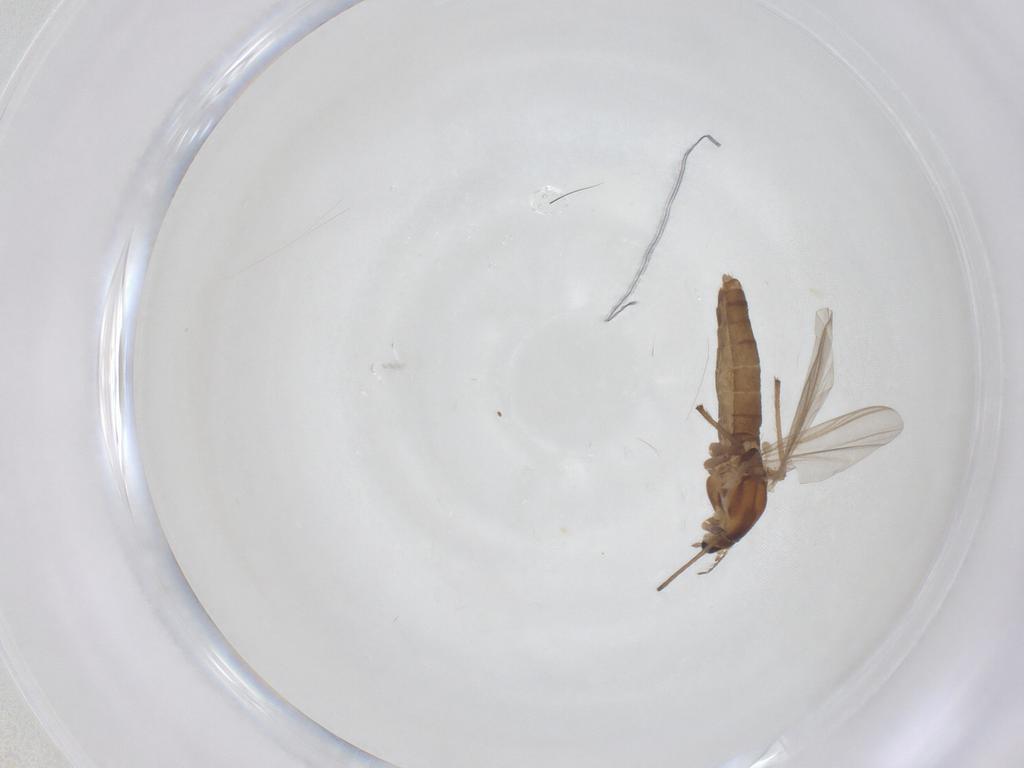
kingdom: Animalia
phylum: Arthropoda
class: Insecta
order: Diptera
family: Chironomidae
